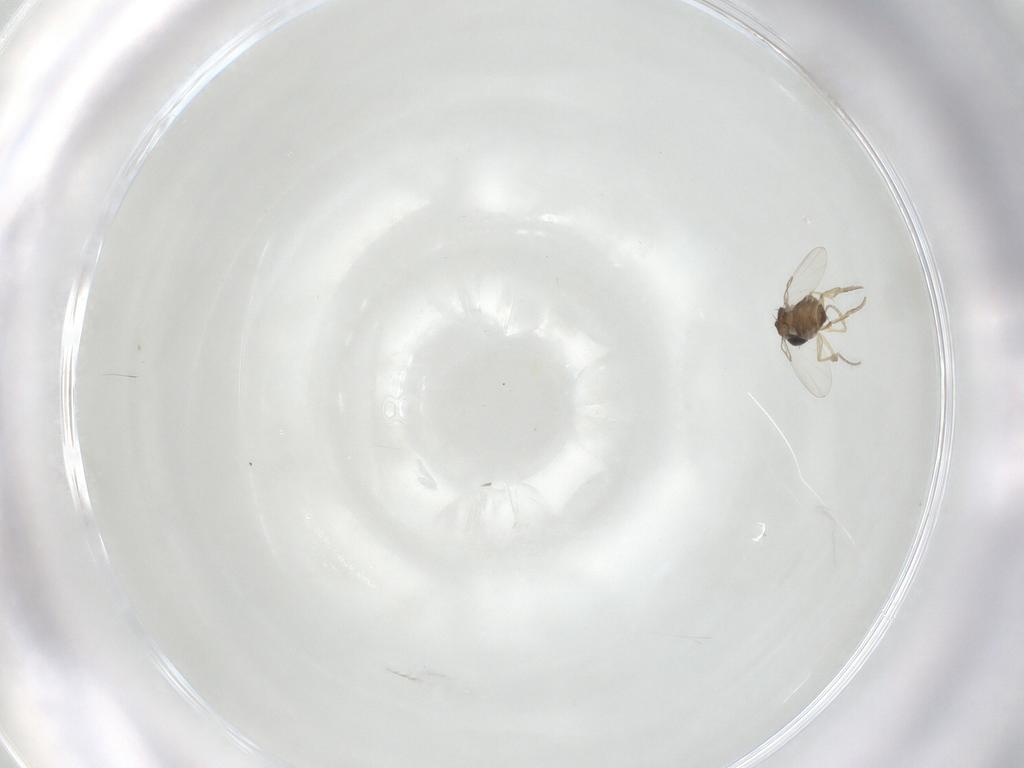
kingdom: Animalia
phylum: Arthropoda
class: Insecta
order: Diptera
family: Phoridae
